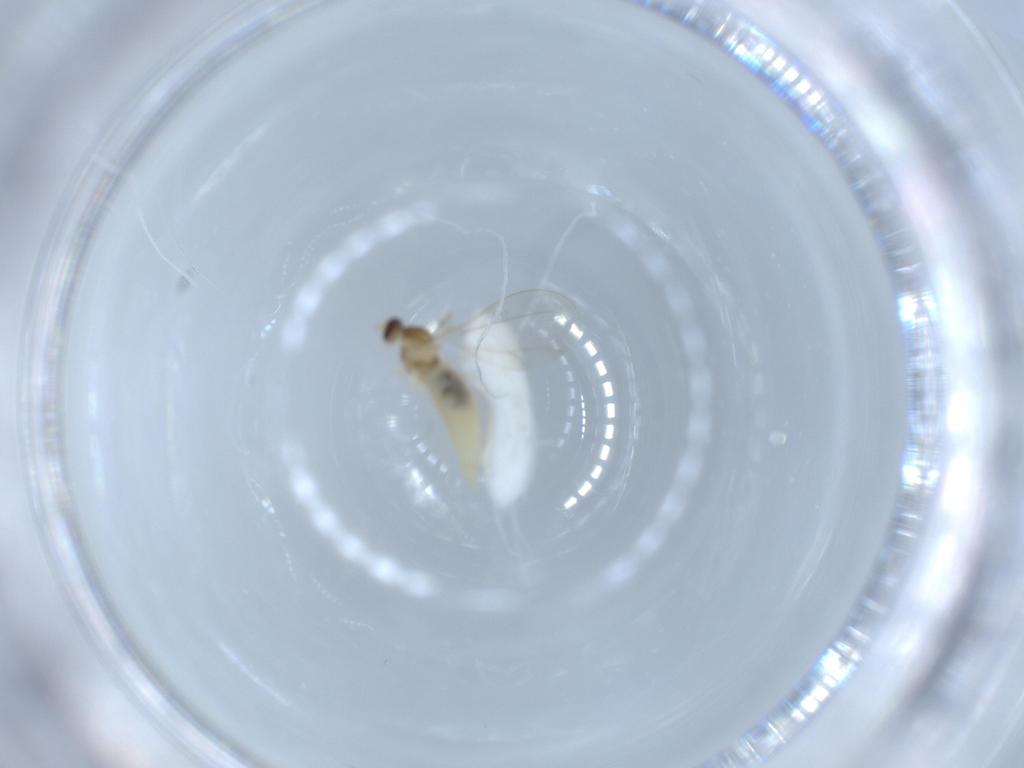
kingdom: Animalia
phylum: Arthropoda
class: Insecta
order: Diptera
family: Cecidomyiidae
